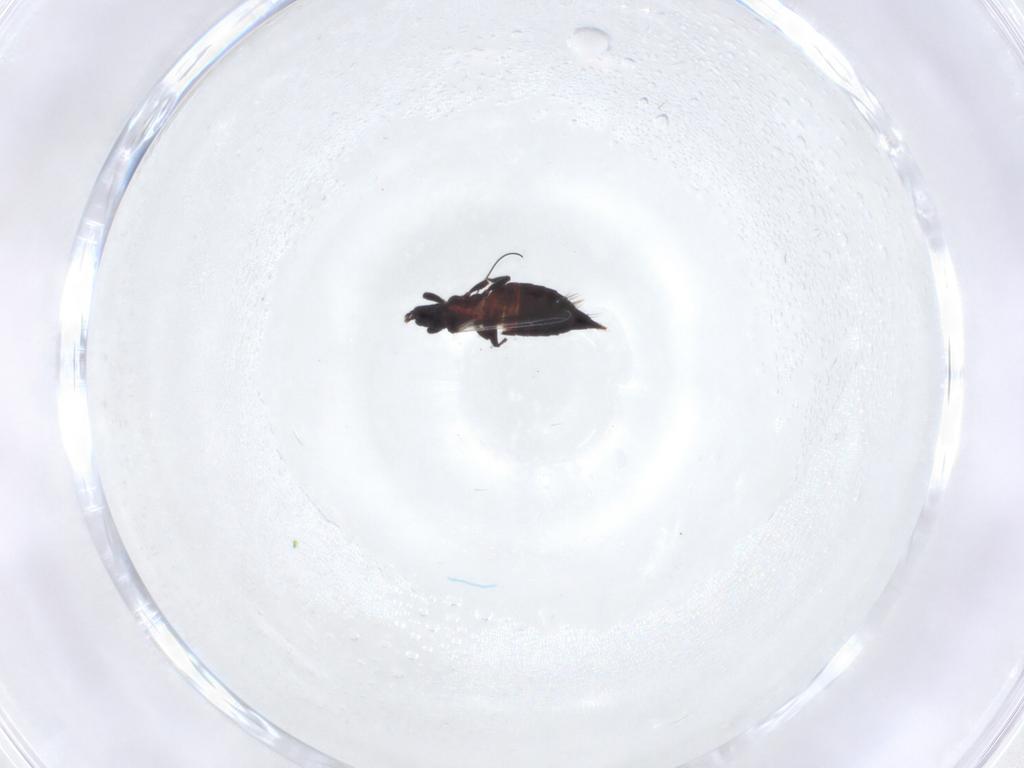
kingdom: Animalia
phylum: Arthropoda
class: Insecta
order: Thysanoptera
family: Aeolothripidae
